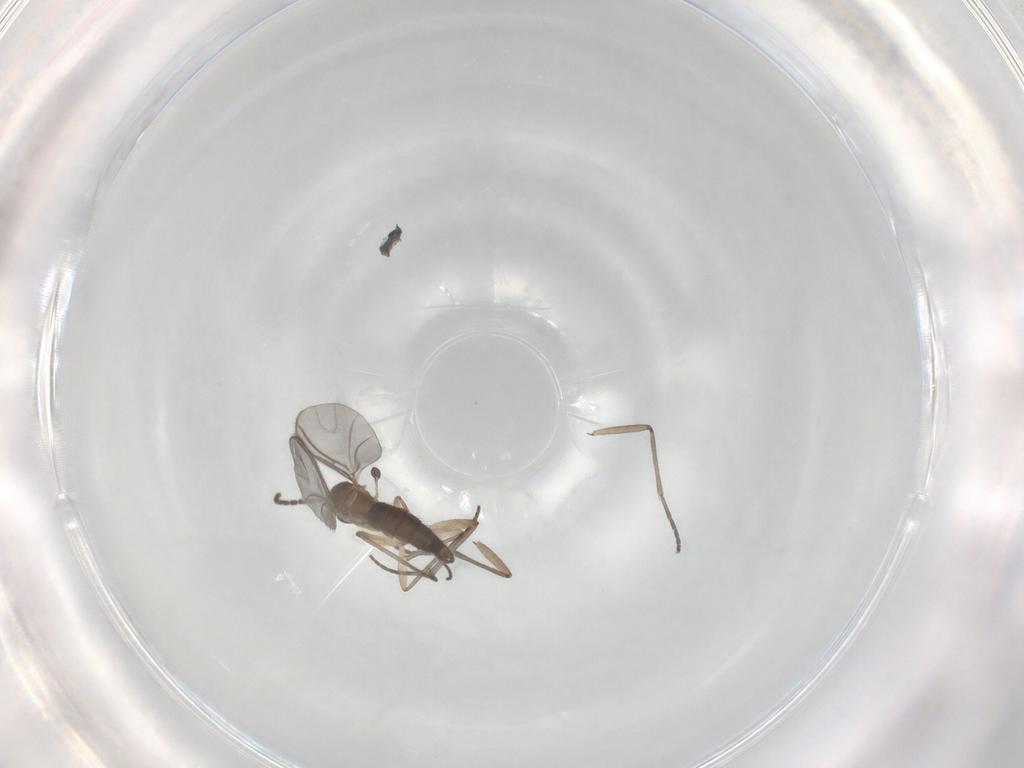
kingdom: Animalia
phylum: Arthropoda
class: Insecta
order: Diptera
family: Sciaridae
